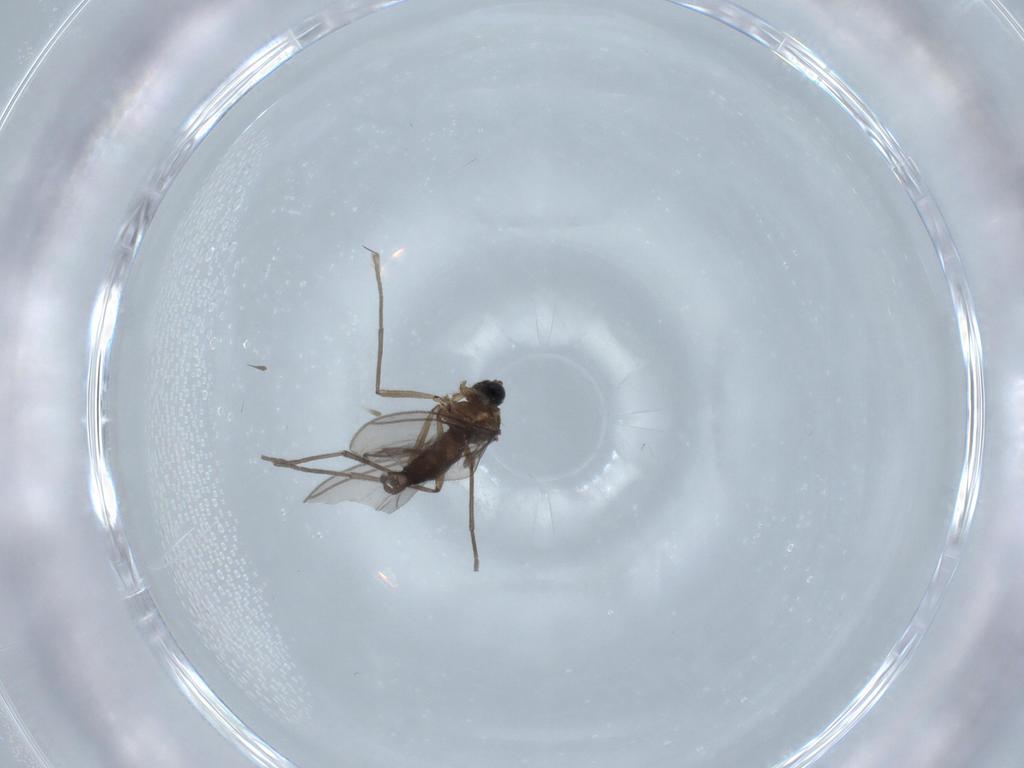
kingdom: Animalia
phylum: Arthropoda
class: Insecta
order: Diptera
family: Sciaridae
